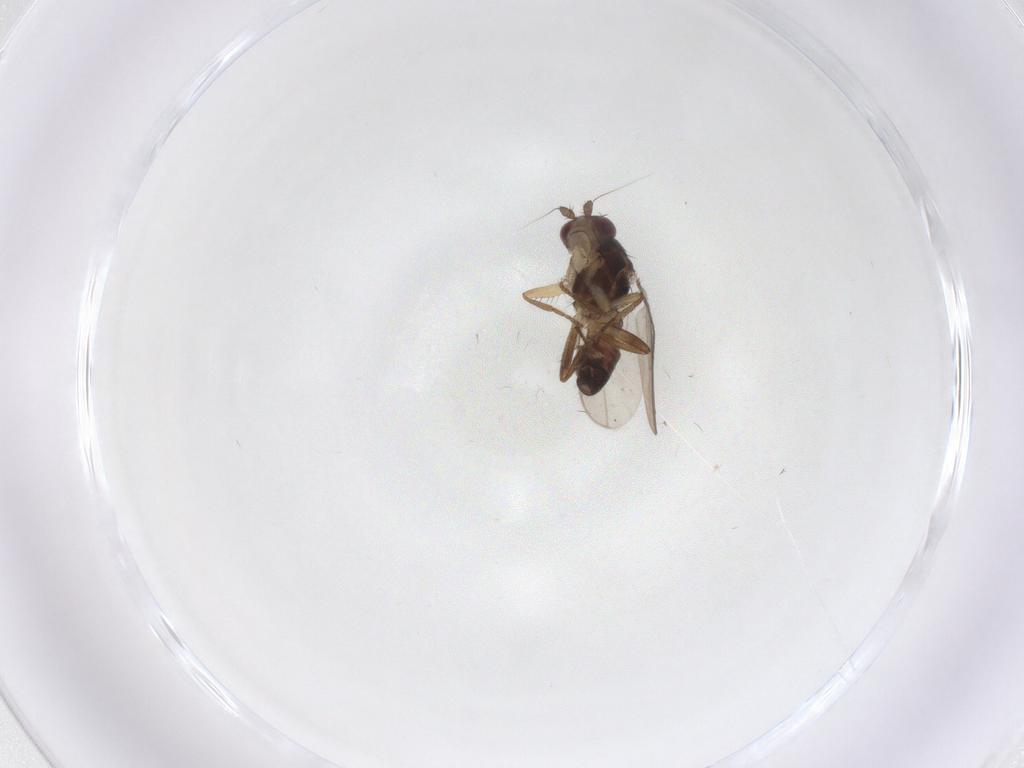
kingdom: Animalia
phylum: Arthropoda
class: Insecta
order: Diptera
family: Sphaeroceridae
